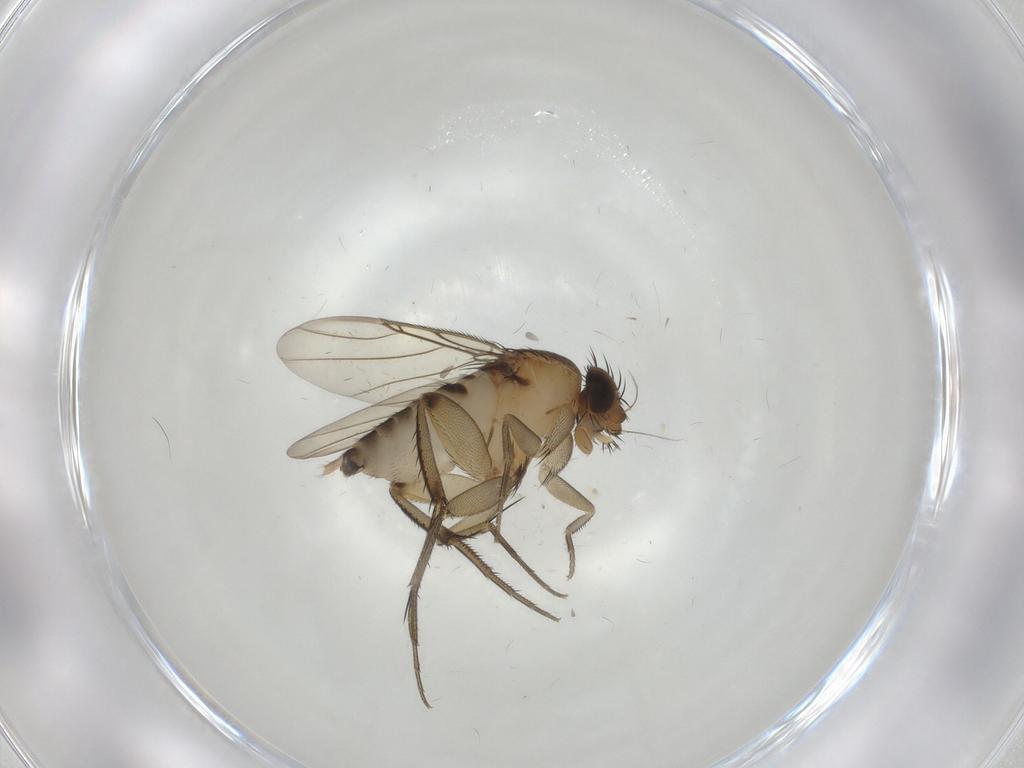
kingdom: Animalia
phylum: Arthropoda
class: Insecta
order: Diptera
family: Phoridae
